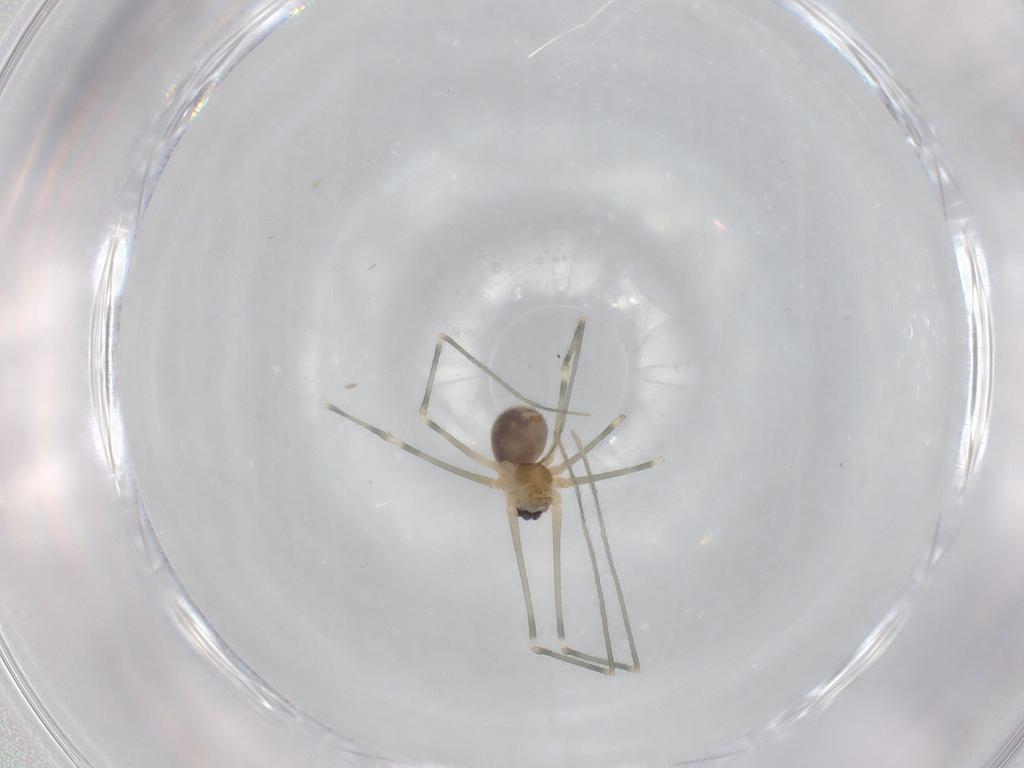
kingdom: Animalia
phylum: Arthropoda
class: Arachnida
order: Araneae
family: Pholcidae
